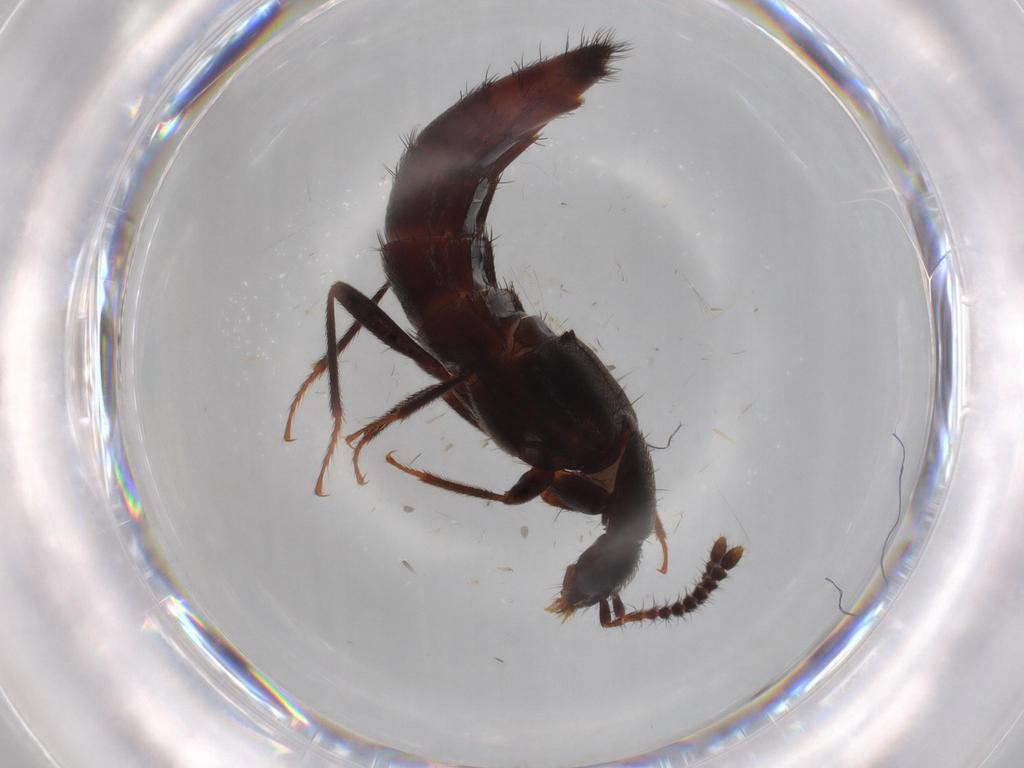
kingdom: Animalia
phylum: Arthropoda
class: Insecta
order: Coleoptera
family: Staphylinidae
